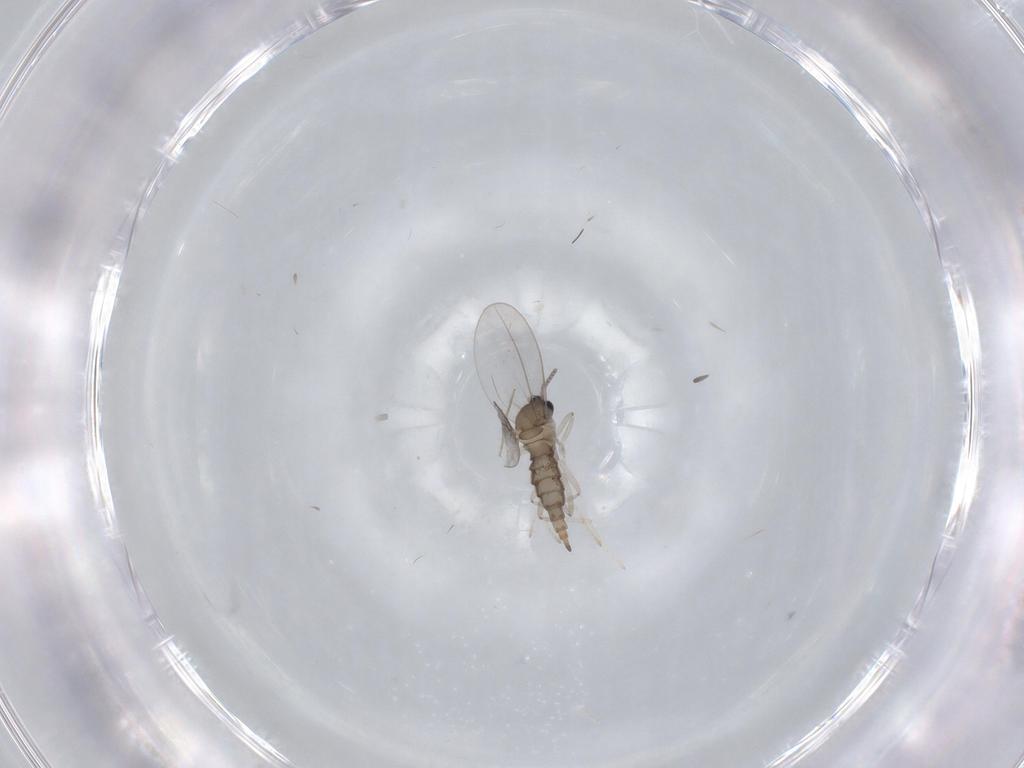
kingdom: Animalia
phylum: Arthropoda
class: Insecta
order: Diptera
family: Cecidomyiidae
